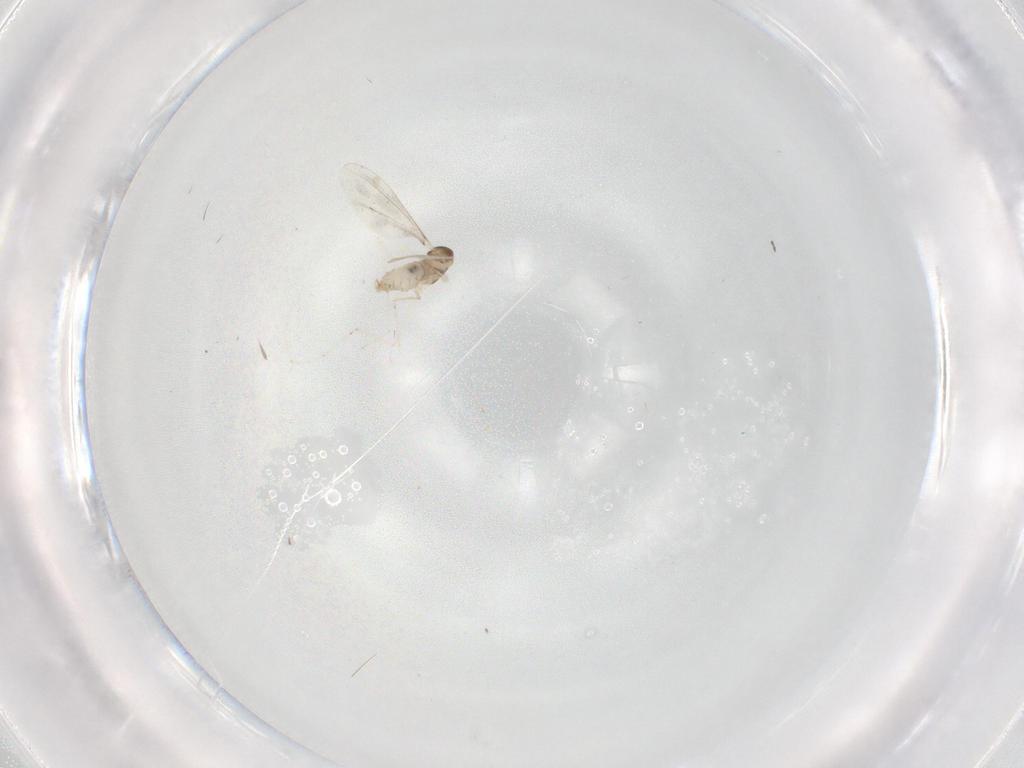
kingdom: Animalia
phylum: Arthropoda
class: Insecta
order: Diptera
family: Cecidomyiidae
